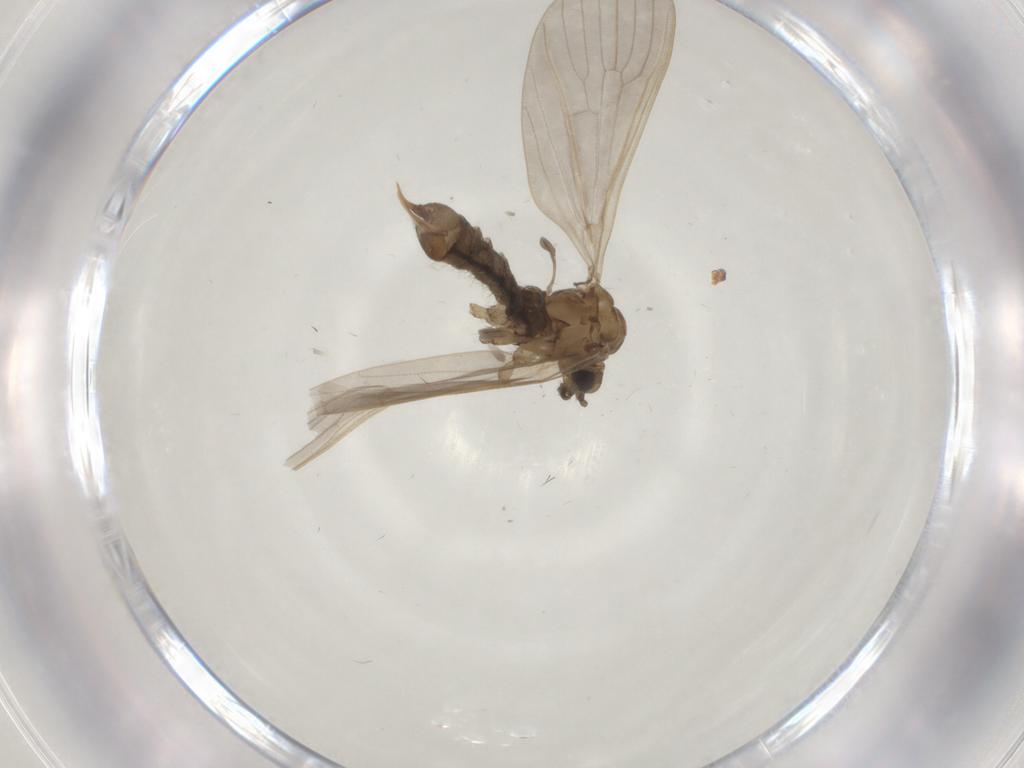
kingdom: Animalia
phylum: Arthropoda
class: Insecta
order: Diptera
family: Limoniidae
